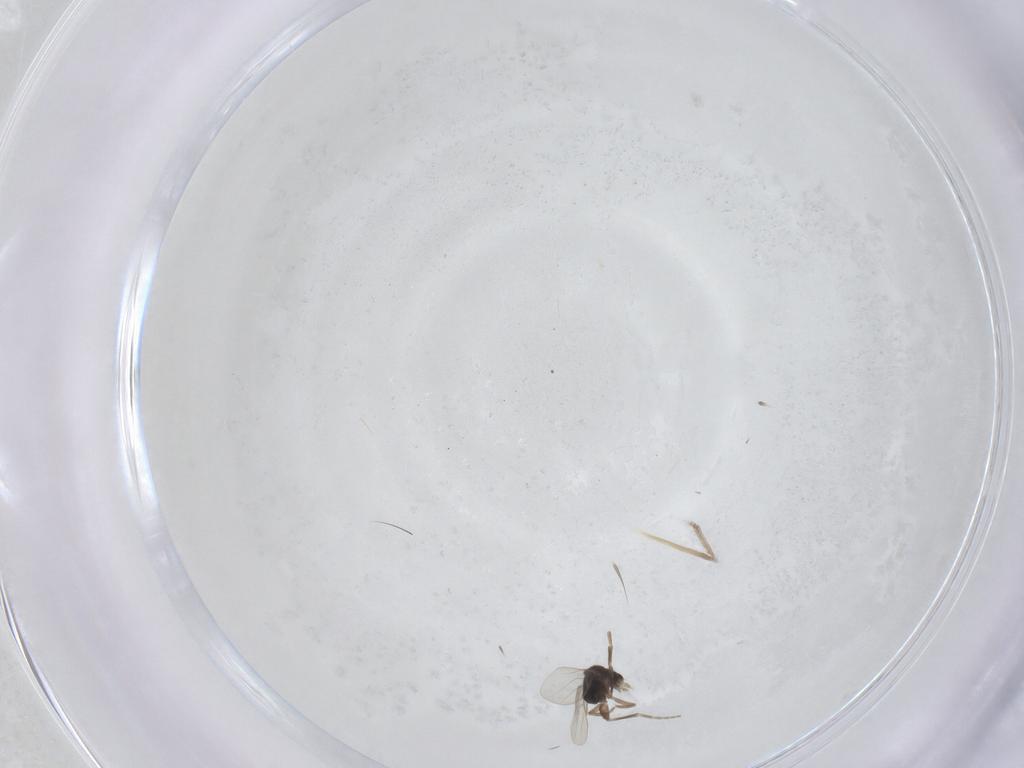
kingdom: Animalia
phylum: Arthropoda
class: Insecta
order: Diptera
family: Phoridae
